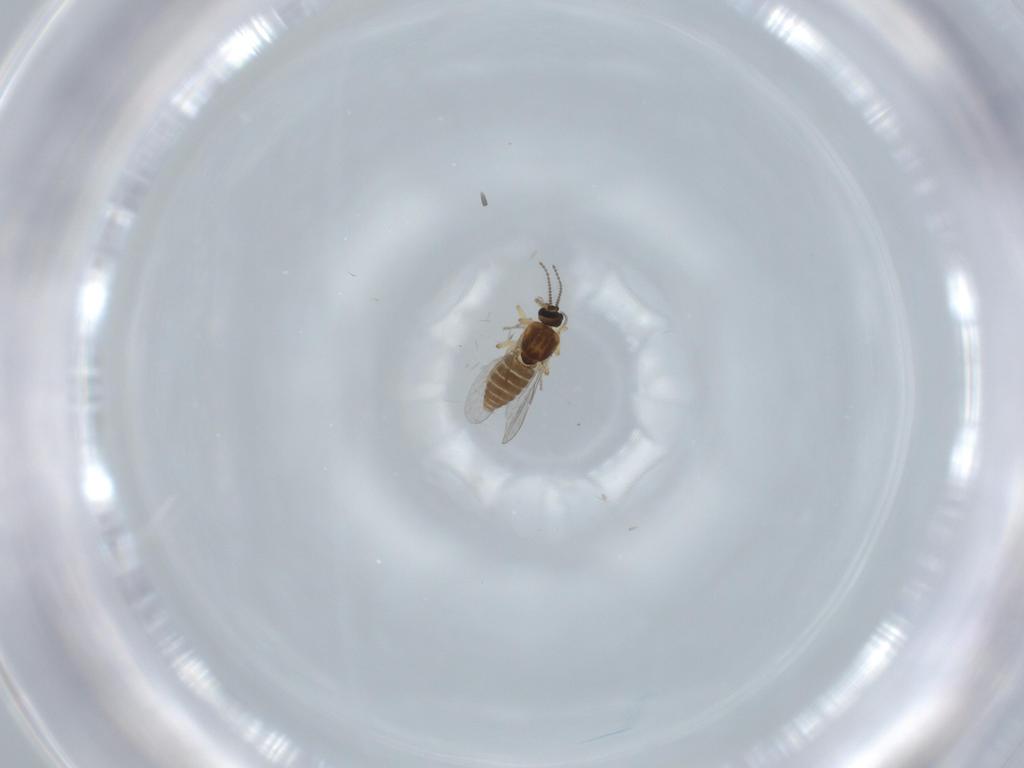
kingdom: Animalia
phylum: Arthropoda
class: Insecta
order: Diptera
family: Ceratopogonidae
